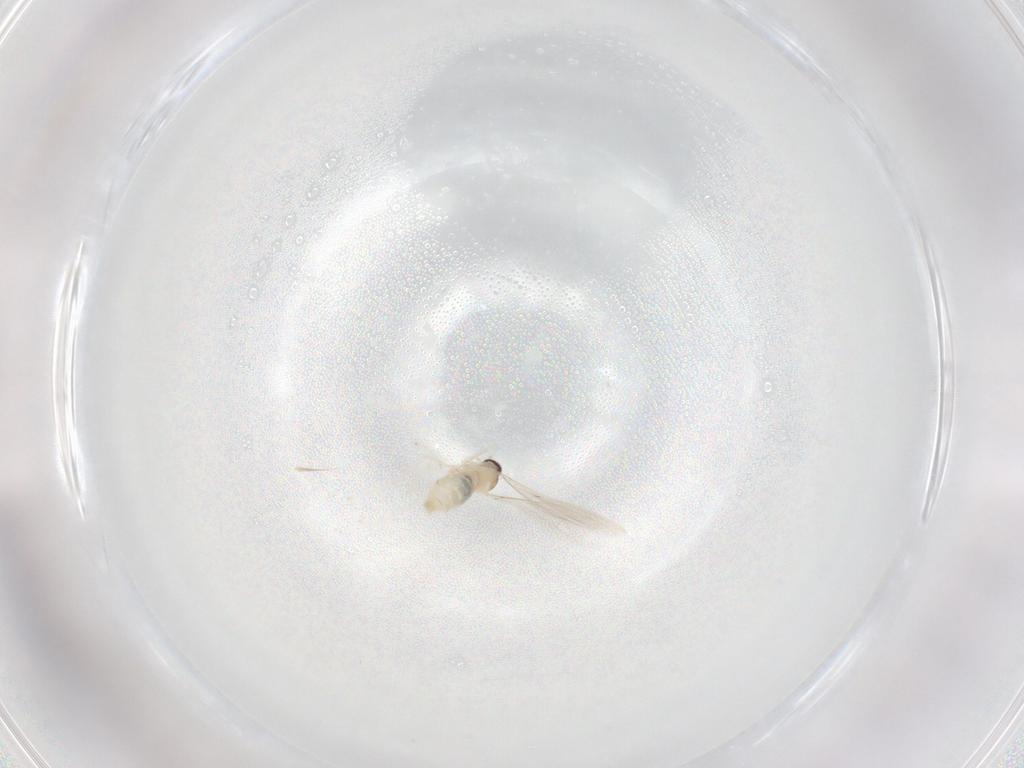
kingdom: Animalia
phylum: Arthropoda
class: Insecta
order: Diptera
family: Cecidomyiidae
